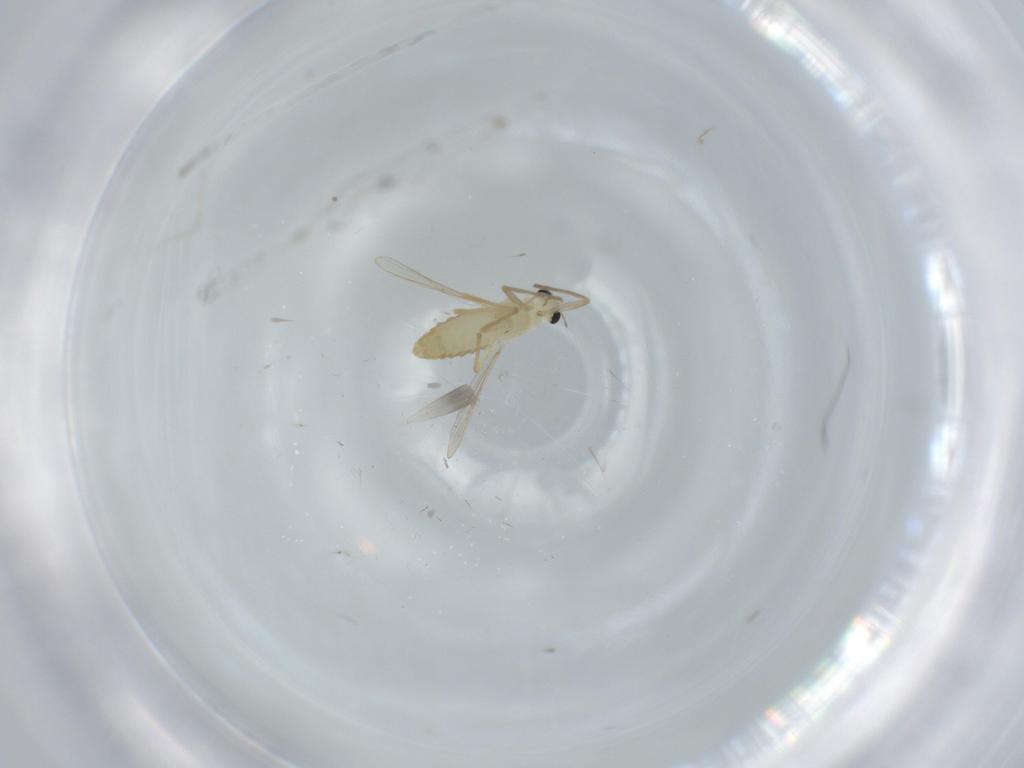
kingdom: Animalia
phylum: Arthropoda
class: Insecta
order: Diptera
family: Chironomidae
